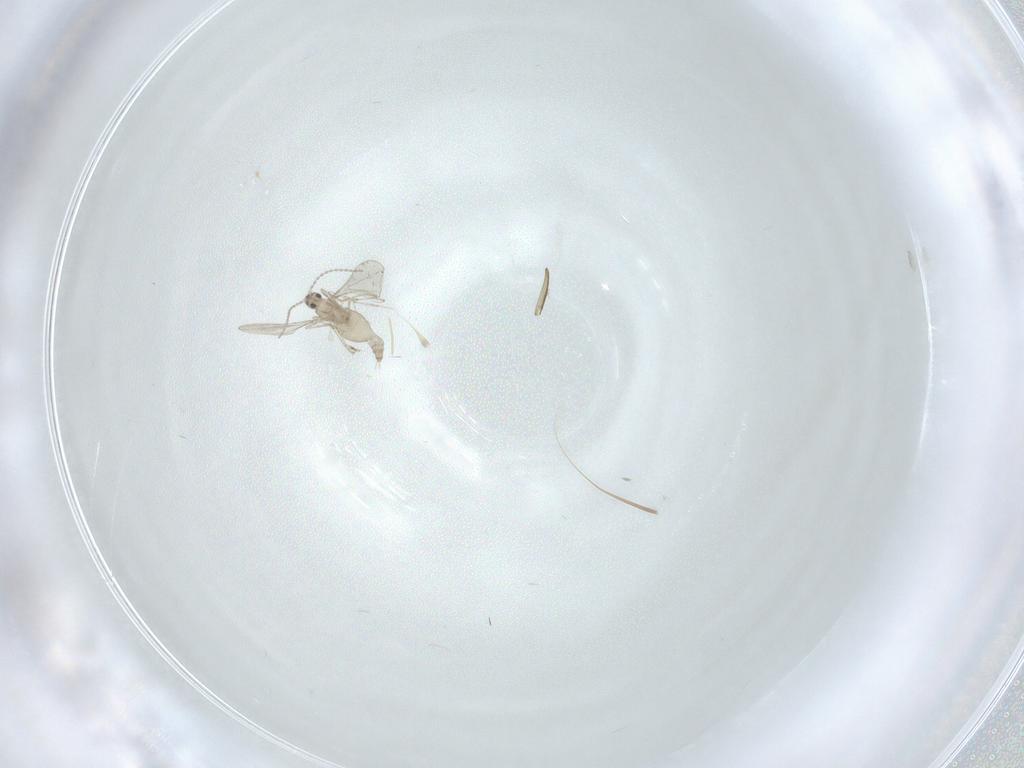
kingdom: Animalia
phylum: Arthropoda
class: Insecta
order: Diptera
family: Cecidomyiidae
